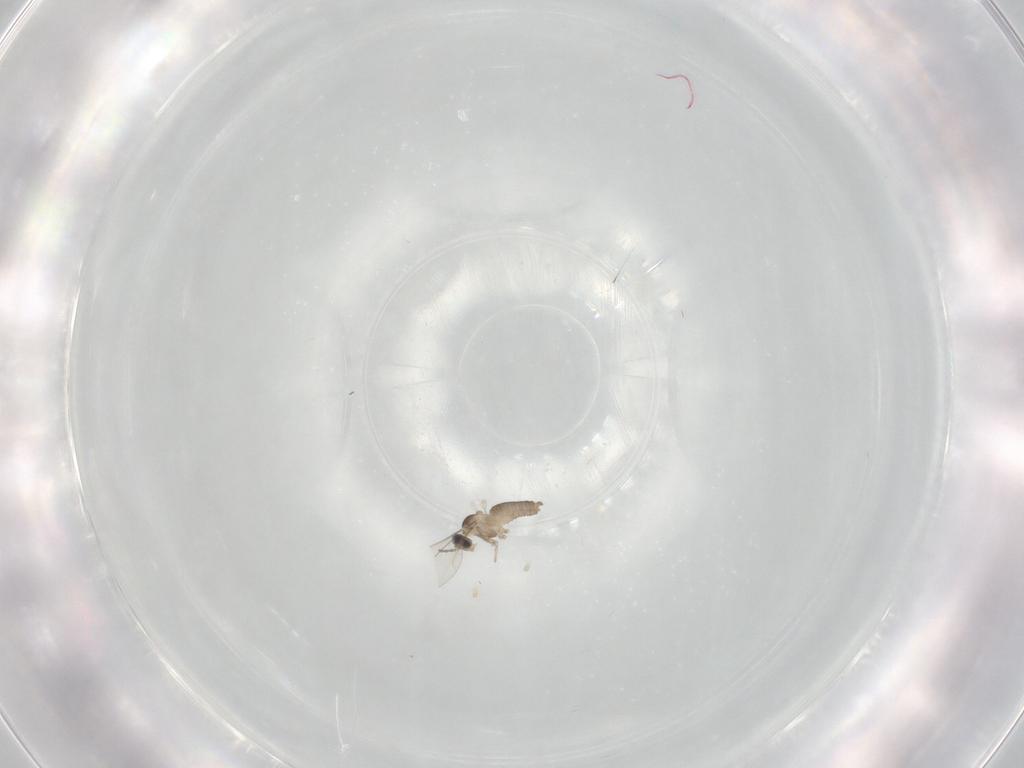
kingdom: Animalia
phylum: Arthropoda
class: Insecta
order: Diptera
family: Cecidomyiidae
